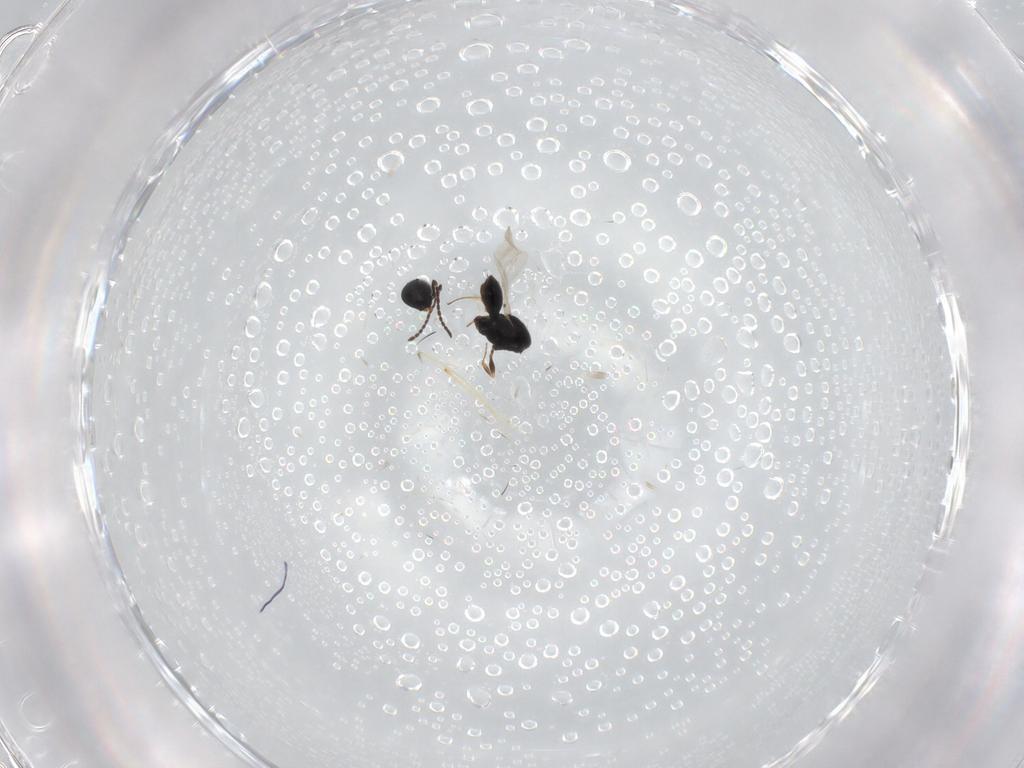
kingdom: Animalia
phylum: Arthropoda
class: Insecta
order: Hymenoptera
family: Scelionidae
